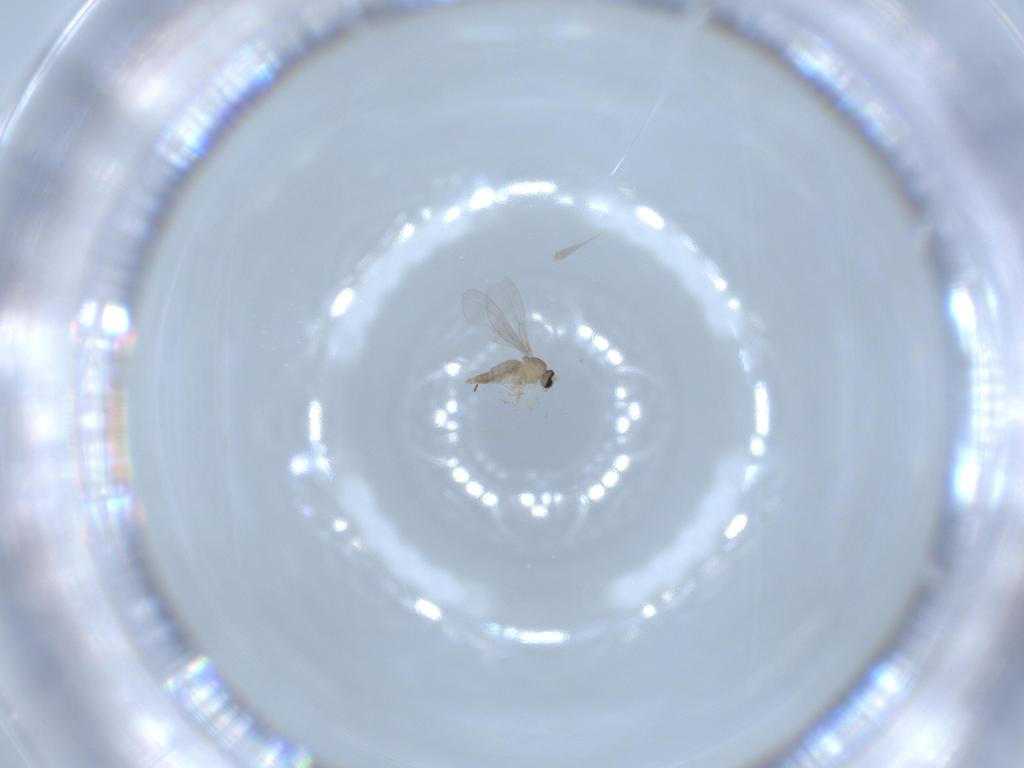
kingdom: Animalia
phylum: Arthropoda
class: Insecta
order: Diptera
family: Cecidomyiidae
